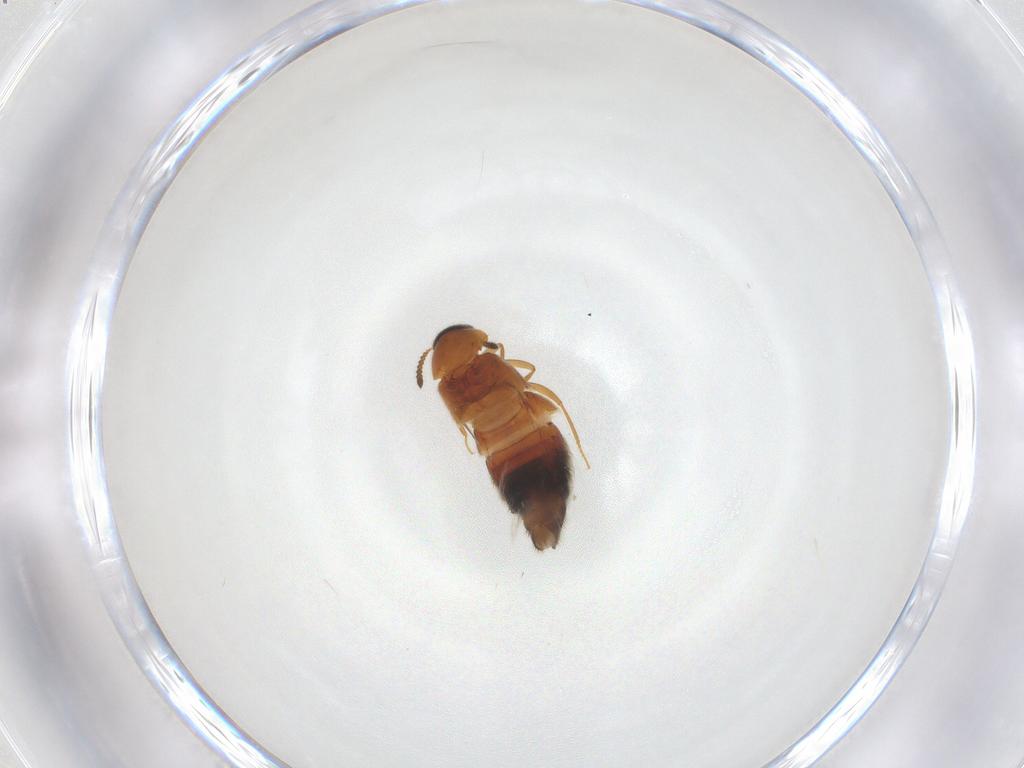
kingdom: Animalia
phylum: Arthropoda
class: Insecta
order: Coleoptera
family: Staphylinidae
